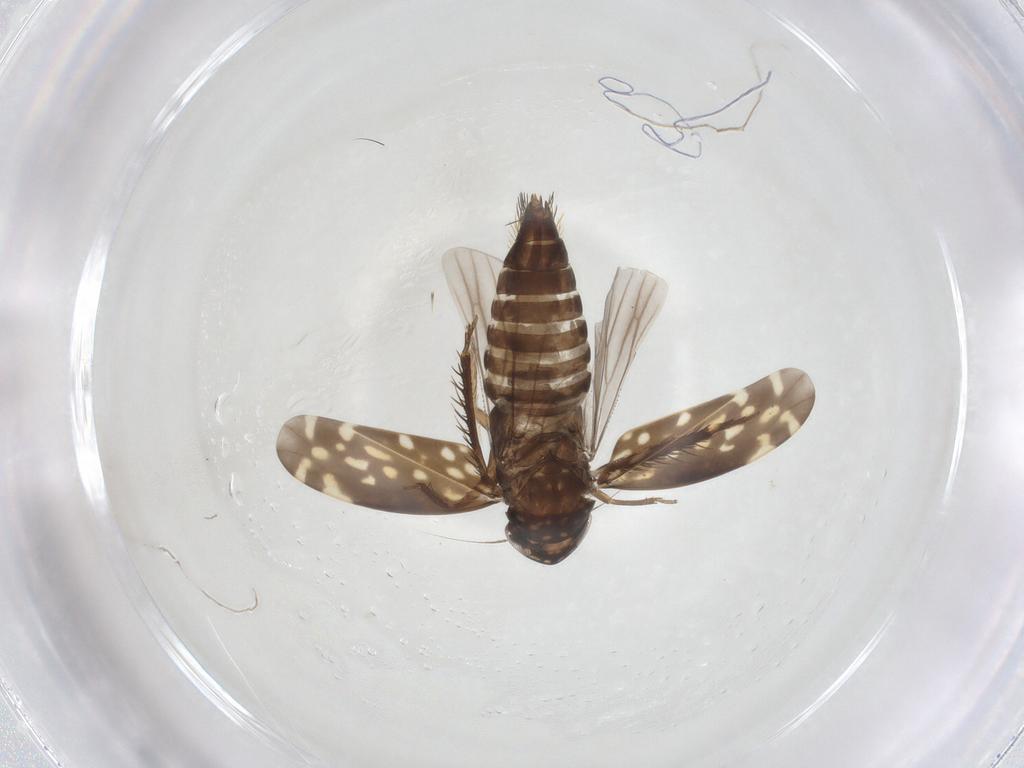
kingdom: Animalia
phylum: Arthropoda
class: Insecta
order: Hemiptera
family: Cicadellidae
